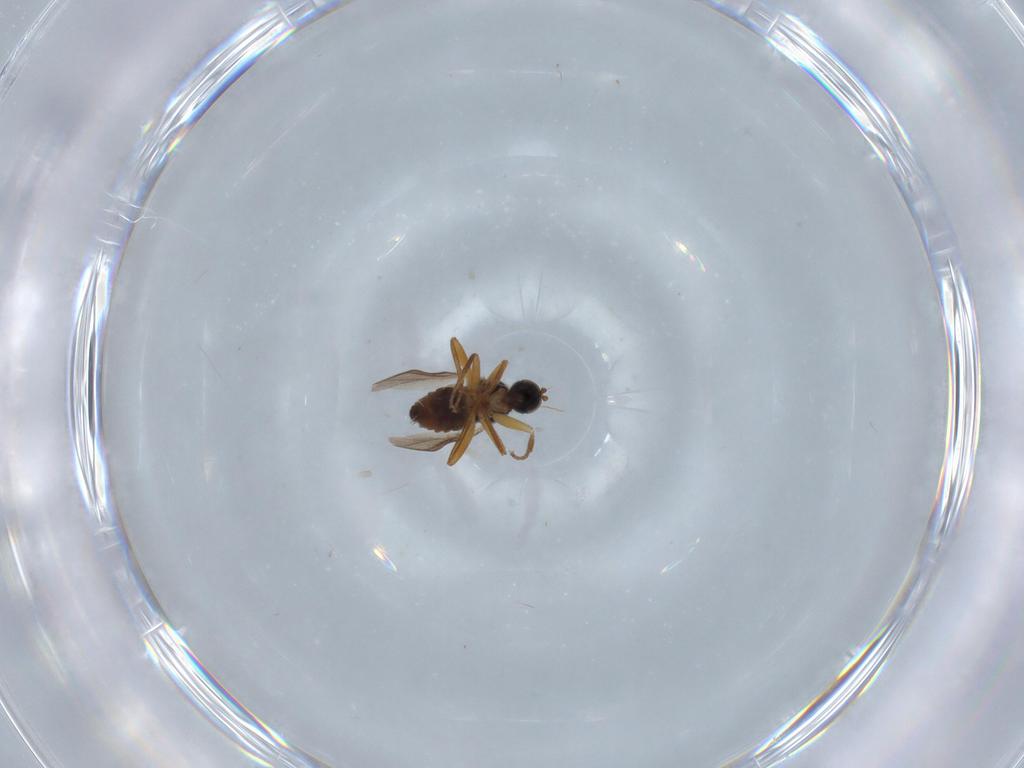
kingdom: Animalia
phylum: Arthropoda
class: Insecta
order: Diptera
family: Hybotidae
